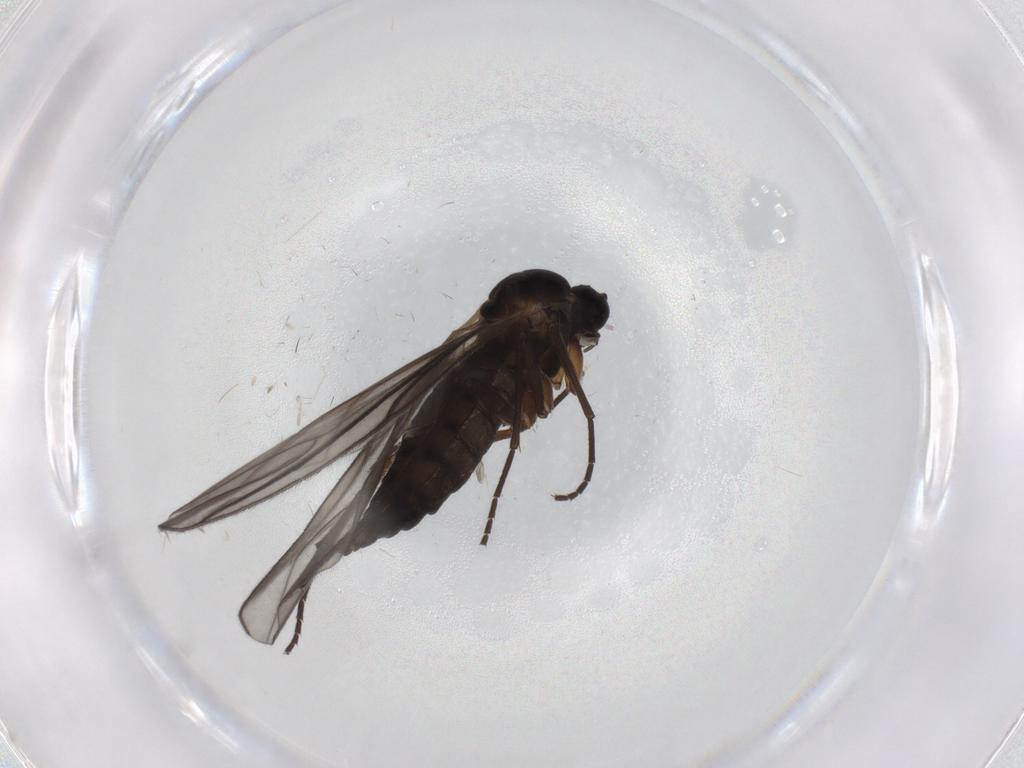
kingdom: Animalia
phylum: Arthropoda
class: Insecta
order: Diptera
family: Sciaridae
